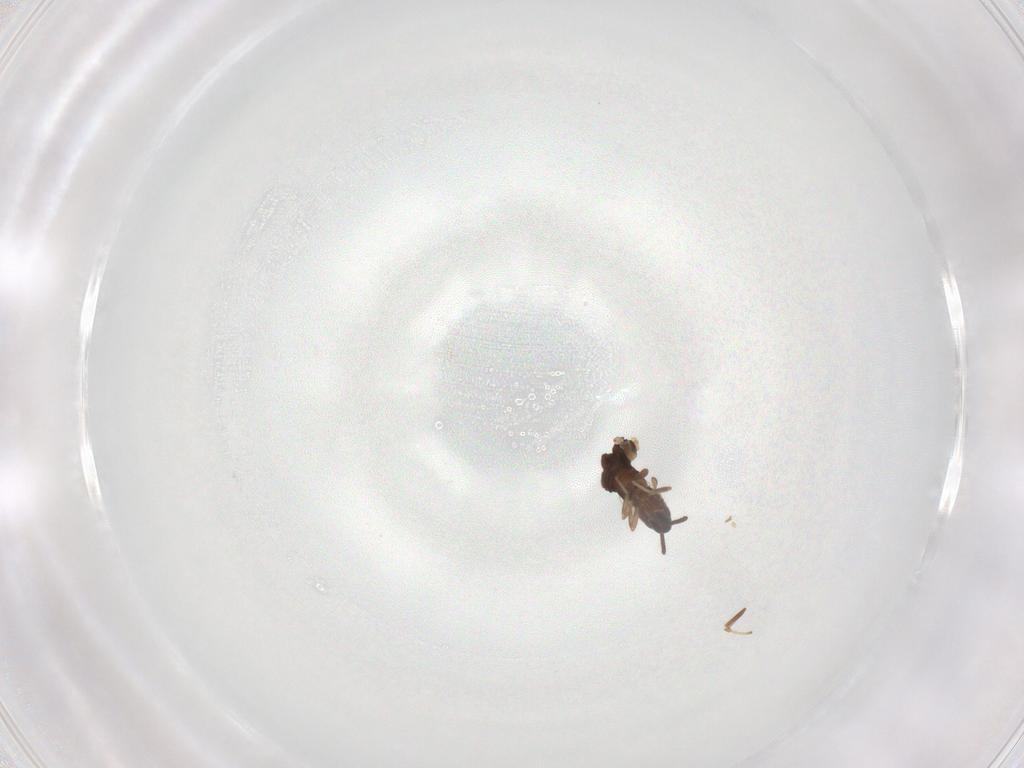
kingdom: Animalia
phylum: Arthropoda
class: Insecta
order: Diptera
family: Scatopsidae
